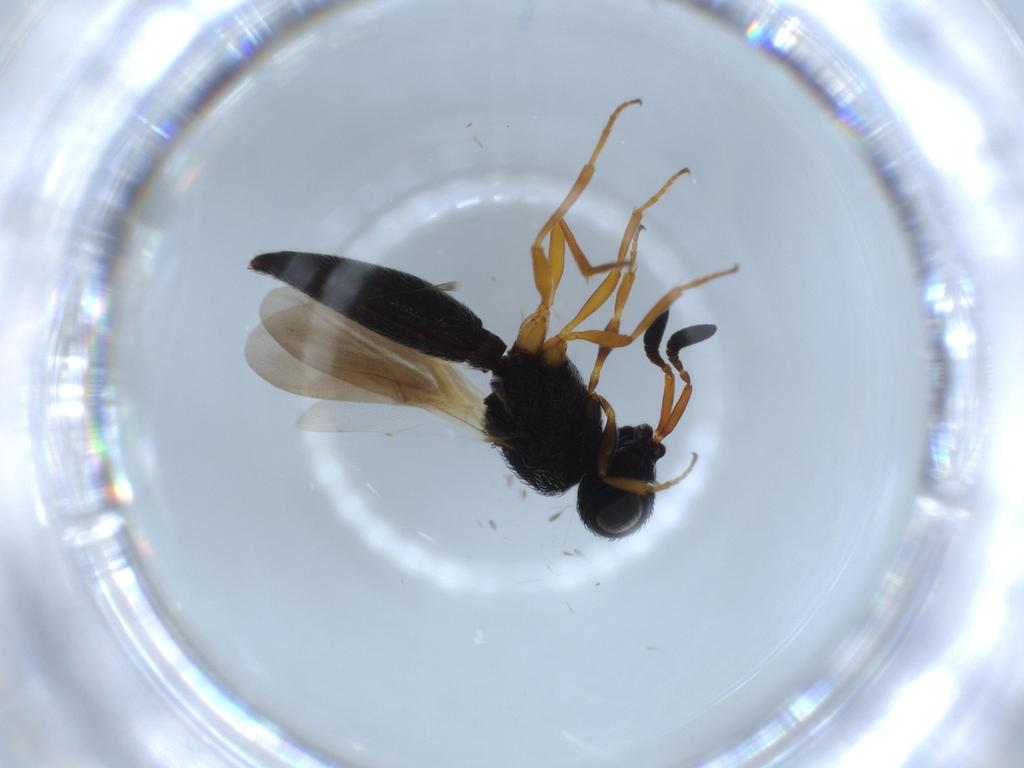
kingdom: Animalia
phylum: Arthropoda
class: Insecta
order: Hymenoptera
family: Scelionidae
